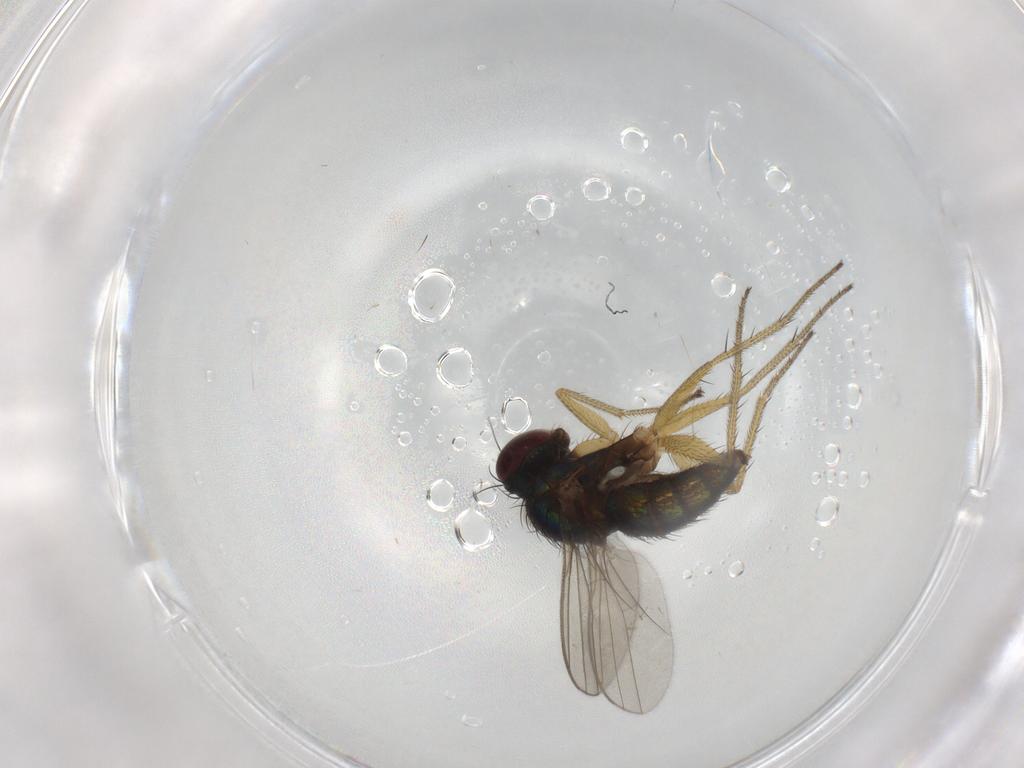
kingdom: Animalia
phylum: Arthropoda
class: Insecta
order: Diptera
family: Dolichopodidae
